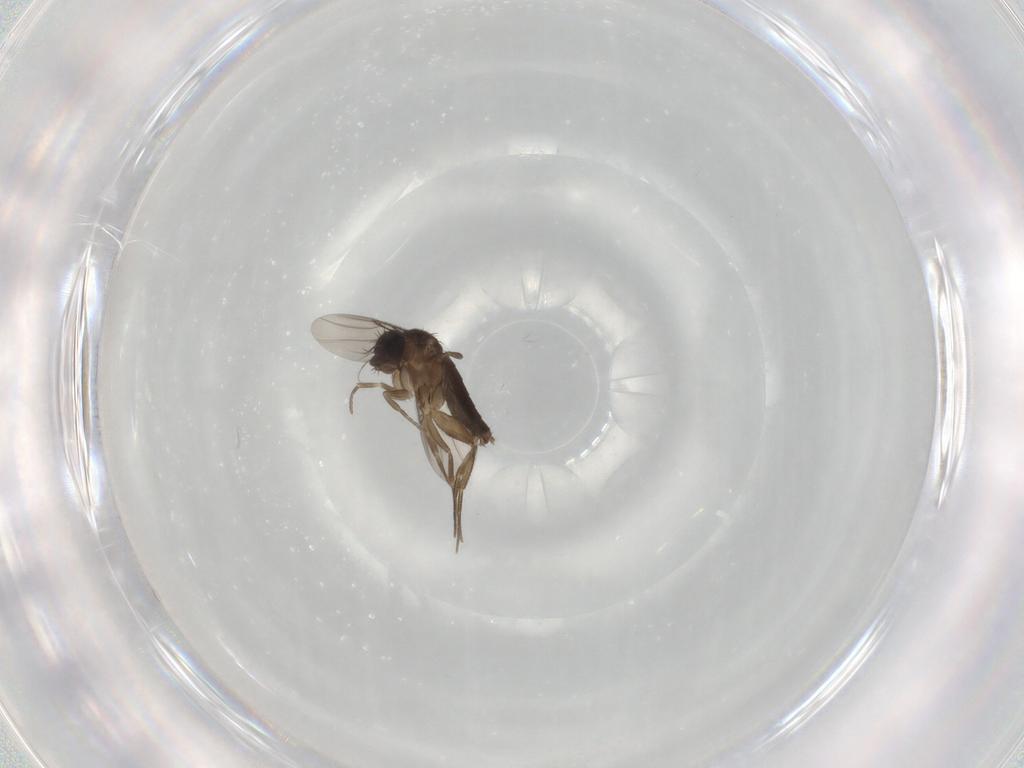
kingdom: Animalia
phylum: Arthropoda
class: Insecta
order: Diptera
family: Phoridae
